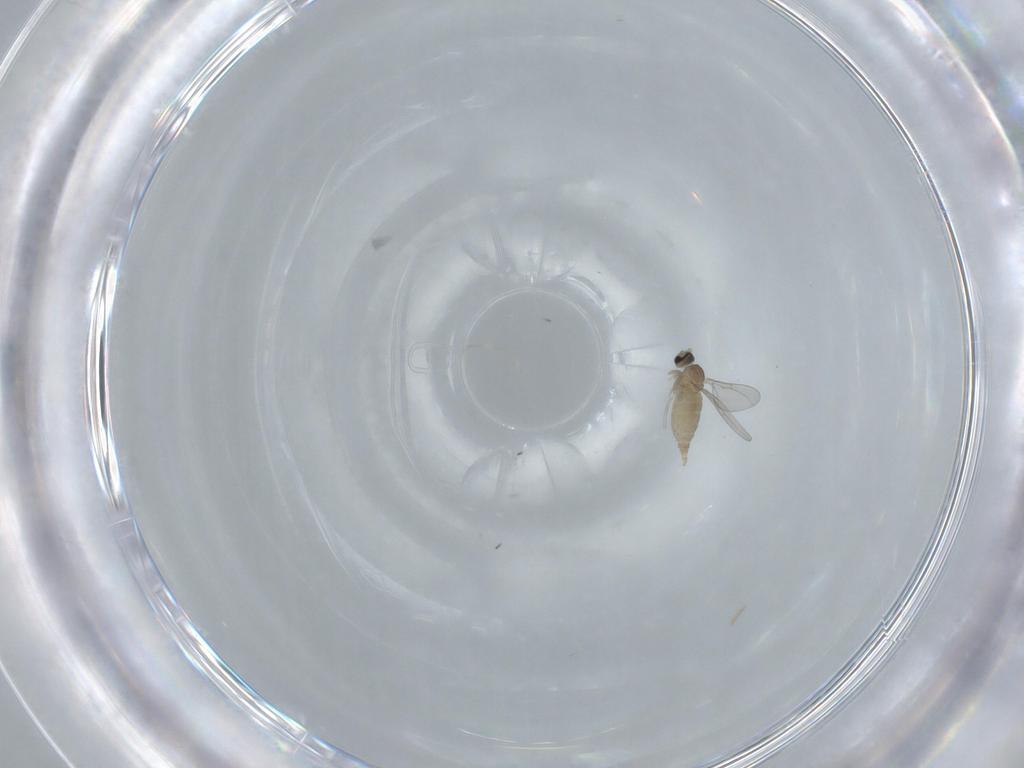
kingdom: Animalia
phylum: Arthropoda
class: Insecta
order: Diptera
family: Cecidomyiidae
